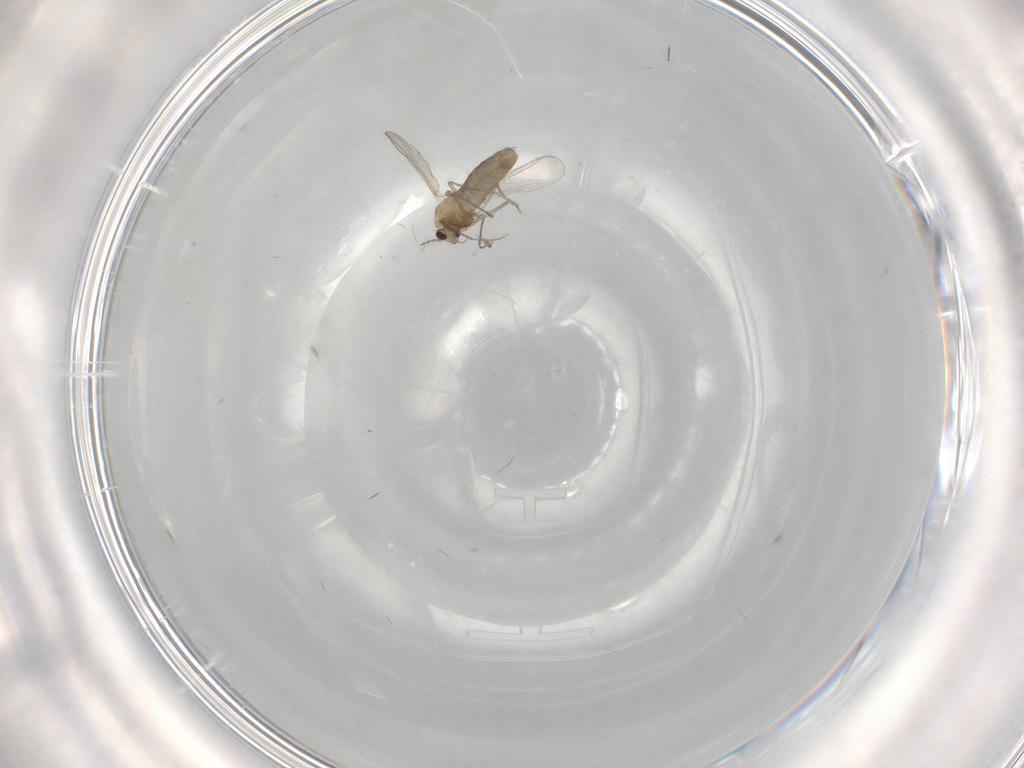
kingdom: Animalia
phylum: Arthropoda
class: Insecta
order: Diptera
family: Chironomidae
